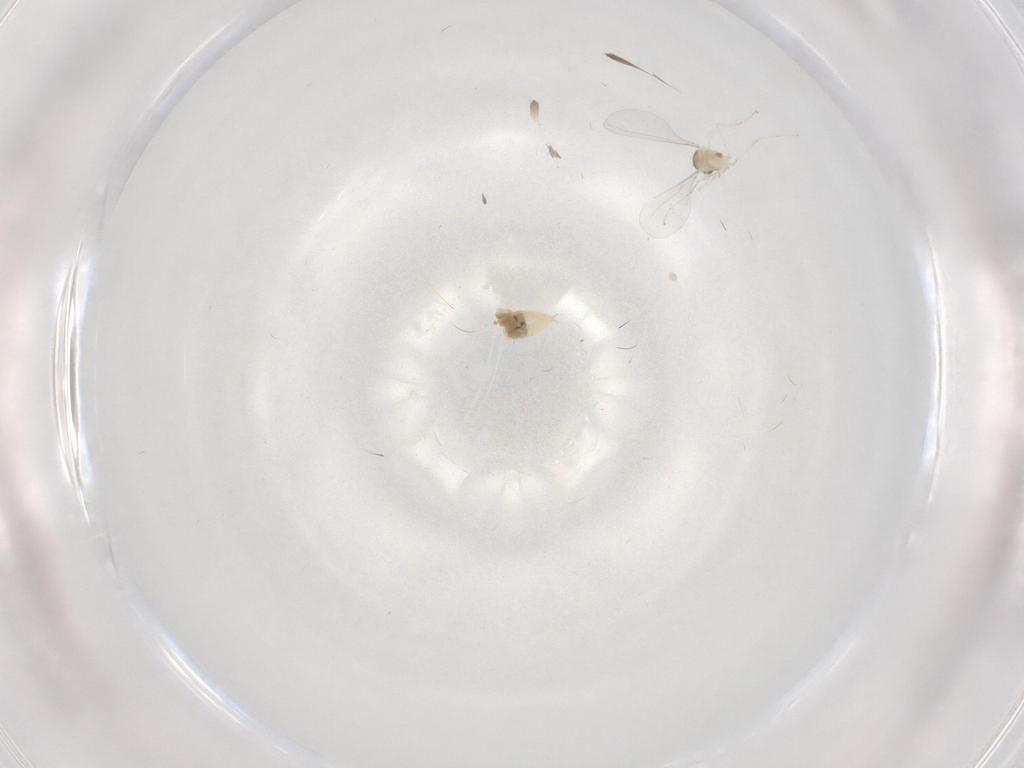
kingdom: Animalia
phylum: Arthropoda
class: Insecta
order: Diptera
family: Cecidomyiidae
